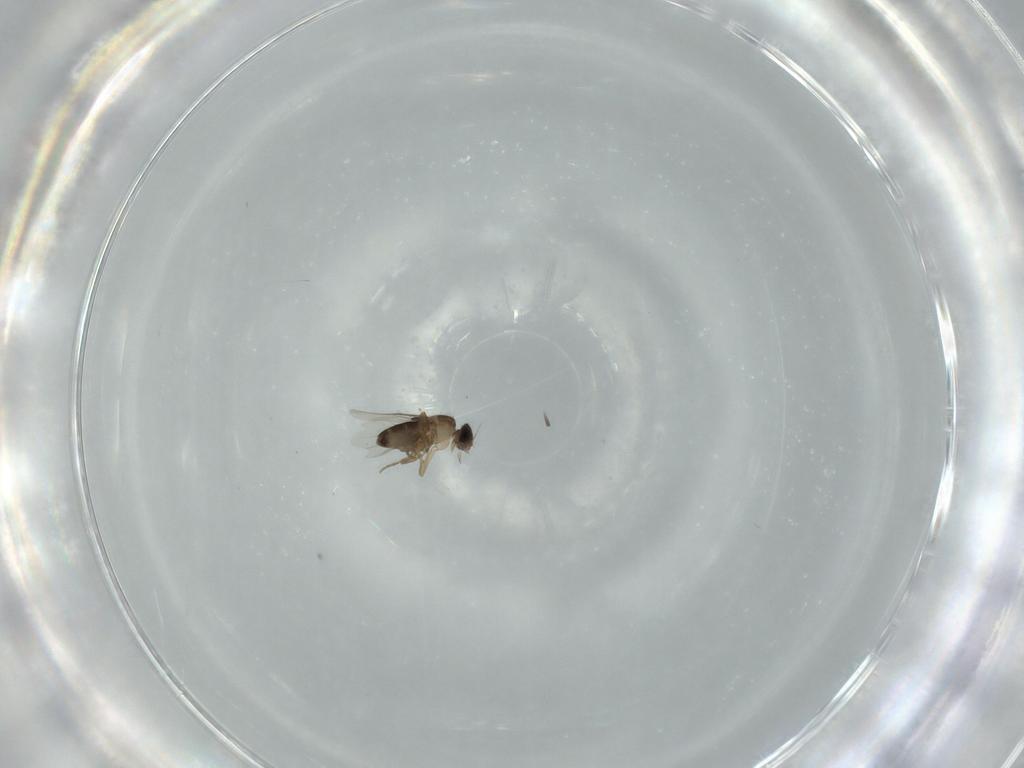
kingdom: Animalia
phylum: Arthropoda
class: Insecta
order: Diptera
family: Phoridae
